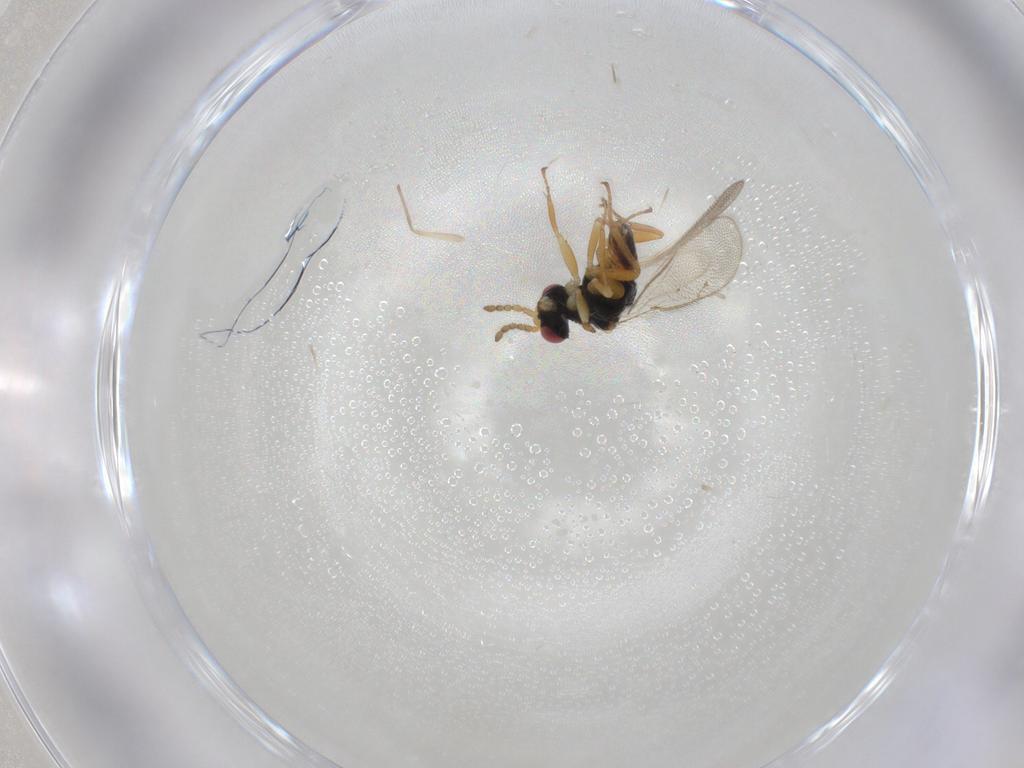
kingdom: Animalia
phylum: Arthropoda
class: Insecta
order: Hymenoptera
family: Eulophidae
